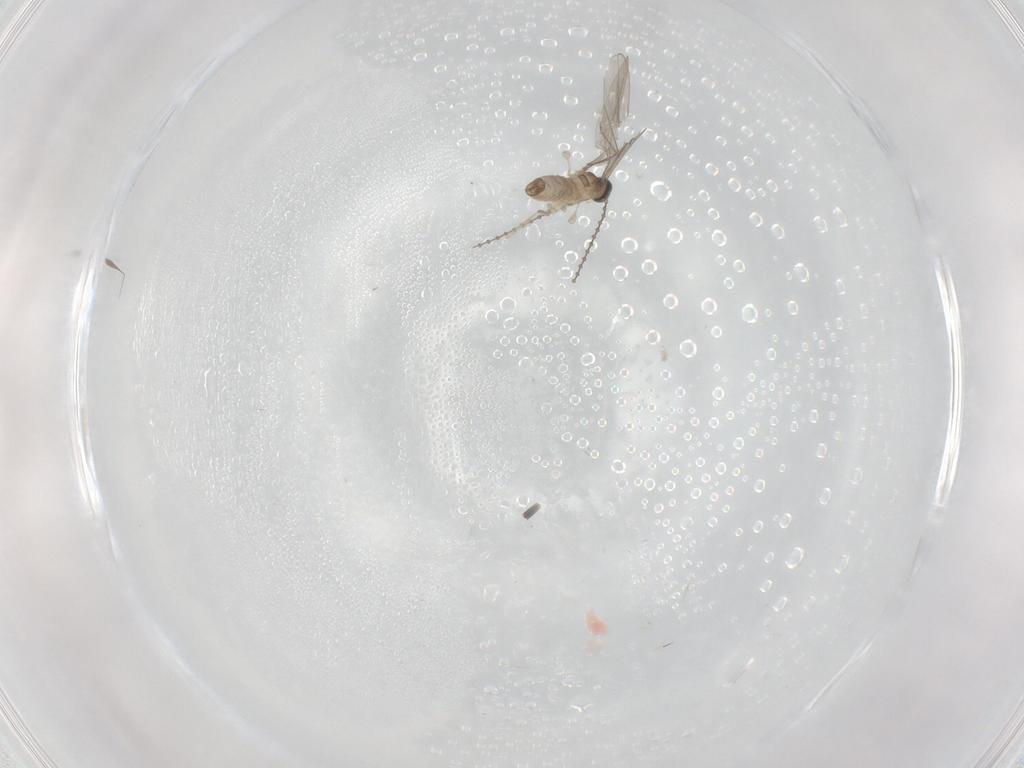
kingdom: Animalia
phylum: Arthropoda
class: Insecta
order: Diptera
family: Cecidomyiidae
